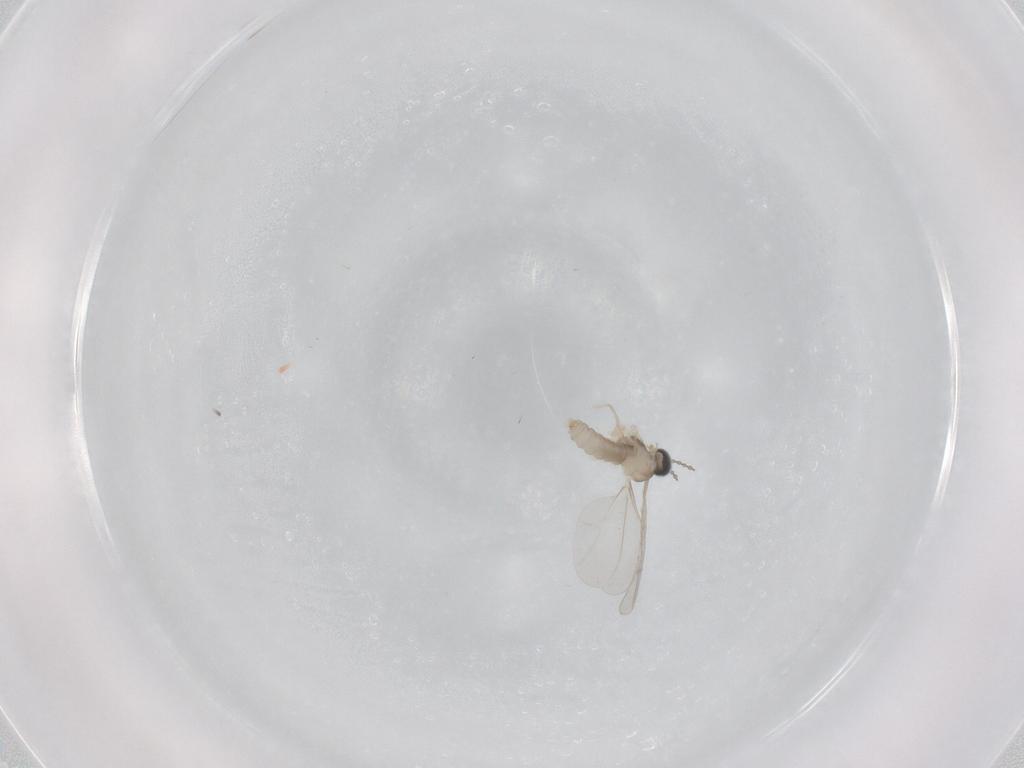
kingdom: Animalia
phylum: Arthropoda
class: Insecta
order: Diptera
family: Cecidomyiidae
